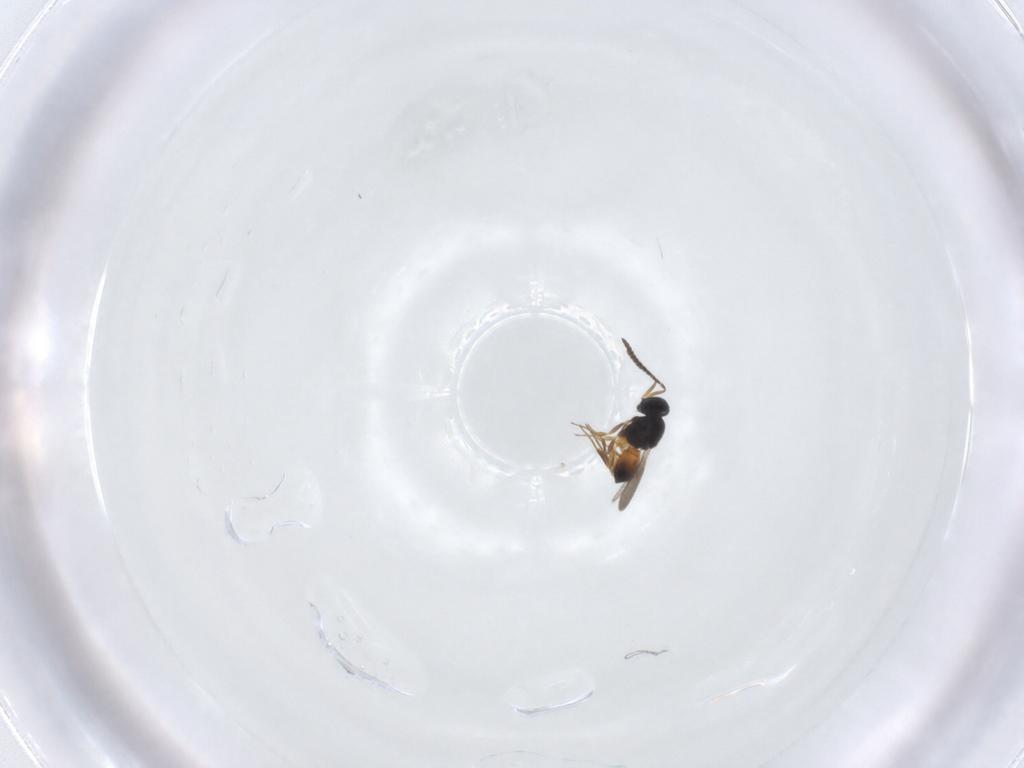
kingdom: Animalia
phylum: Arthropoda
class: Insecta
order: Hymenoptera
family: Scelionidae
